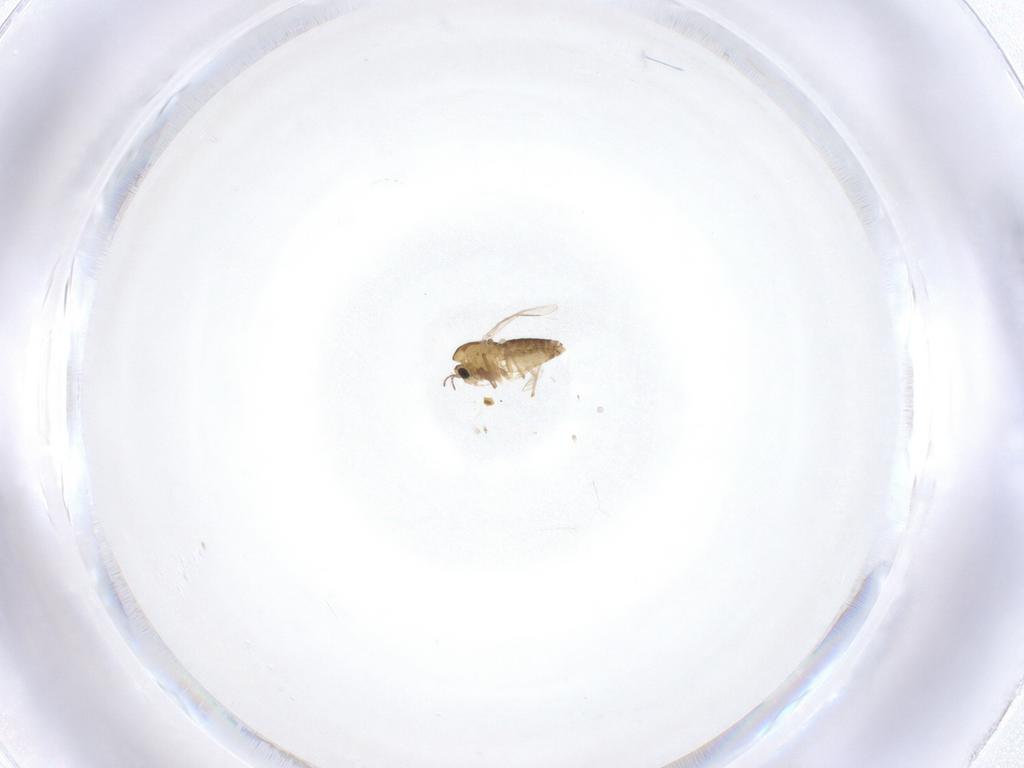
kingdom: Animalia
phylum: Arthropoda
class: Insecta
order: Diptera
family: Chironomidae
